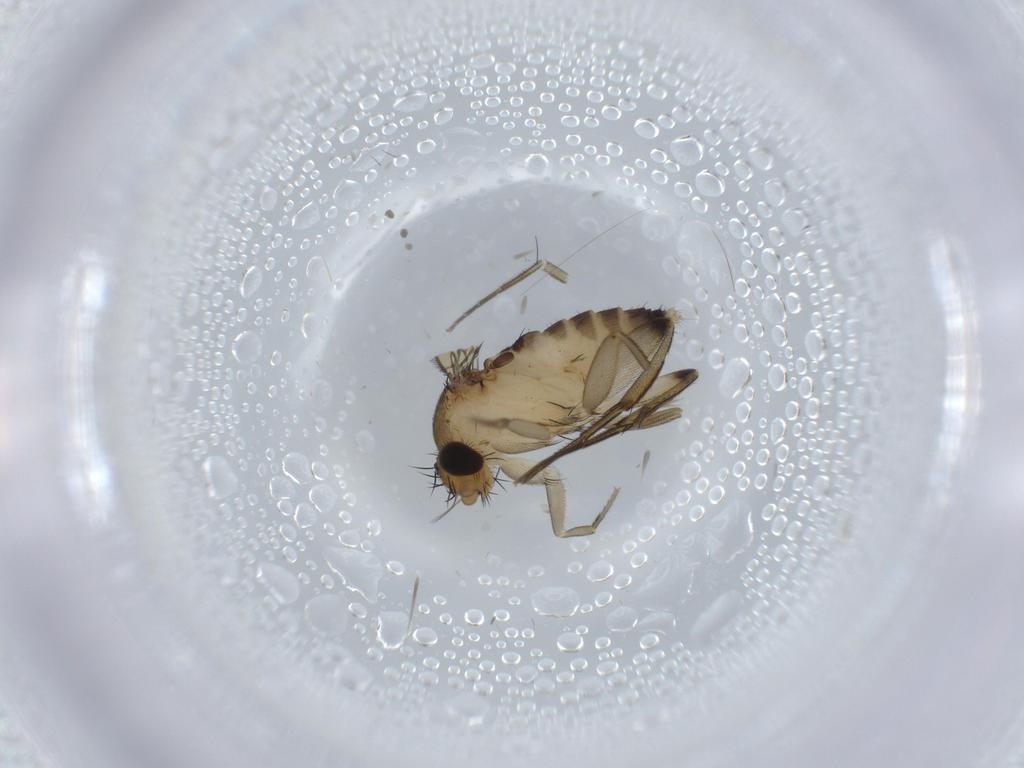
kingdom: Animalia
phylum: Arthropoda
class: Insecta
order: Diptera
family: Phoridae
